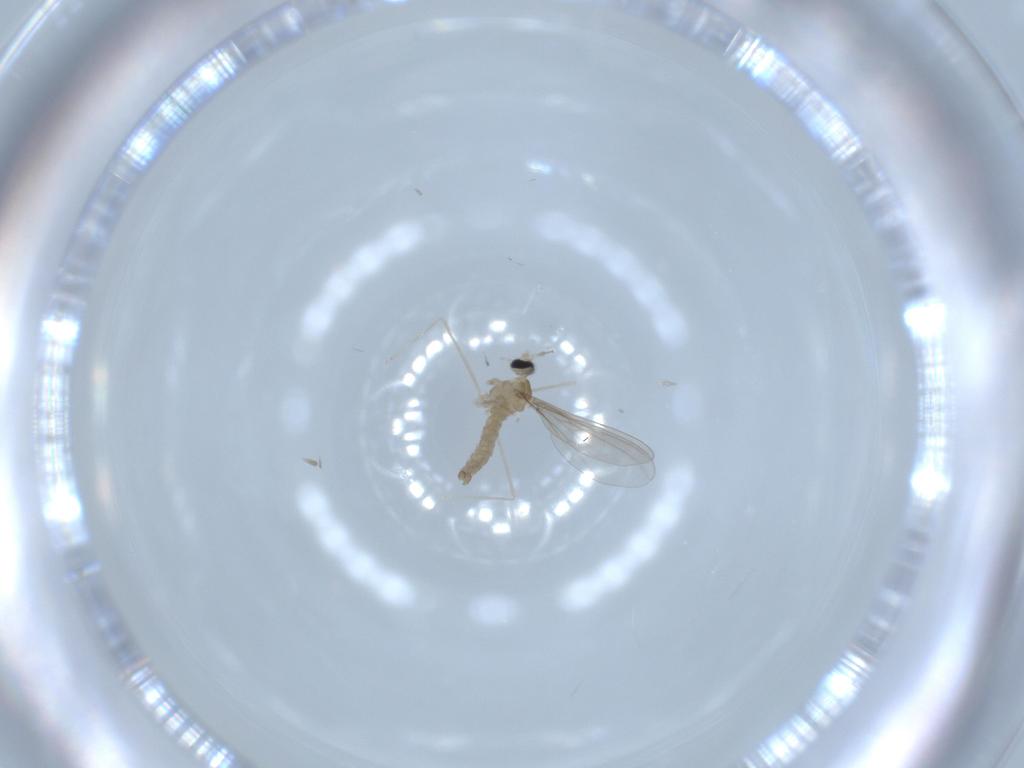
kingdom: Animalia
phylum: Arthropoda
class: Insecta
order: Diptera
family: Cecidomyiidae
